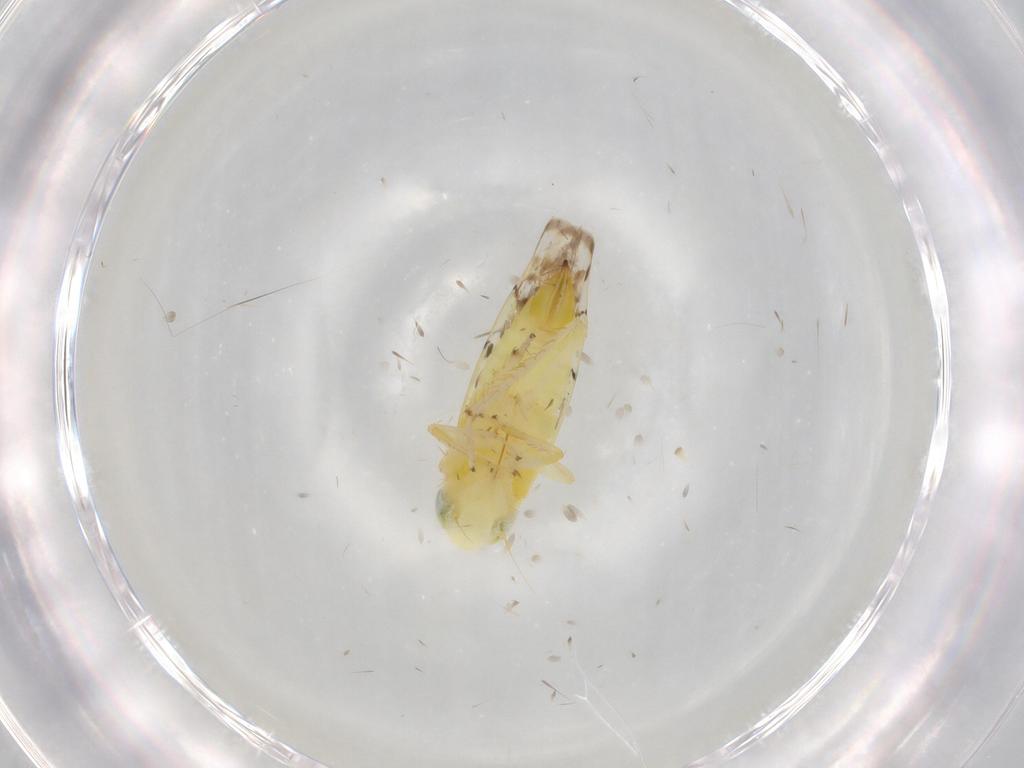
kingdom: Animalia
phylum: Arthropoda
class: Insecta
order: Hemiptera
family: Cicadellidae
